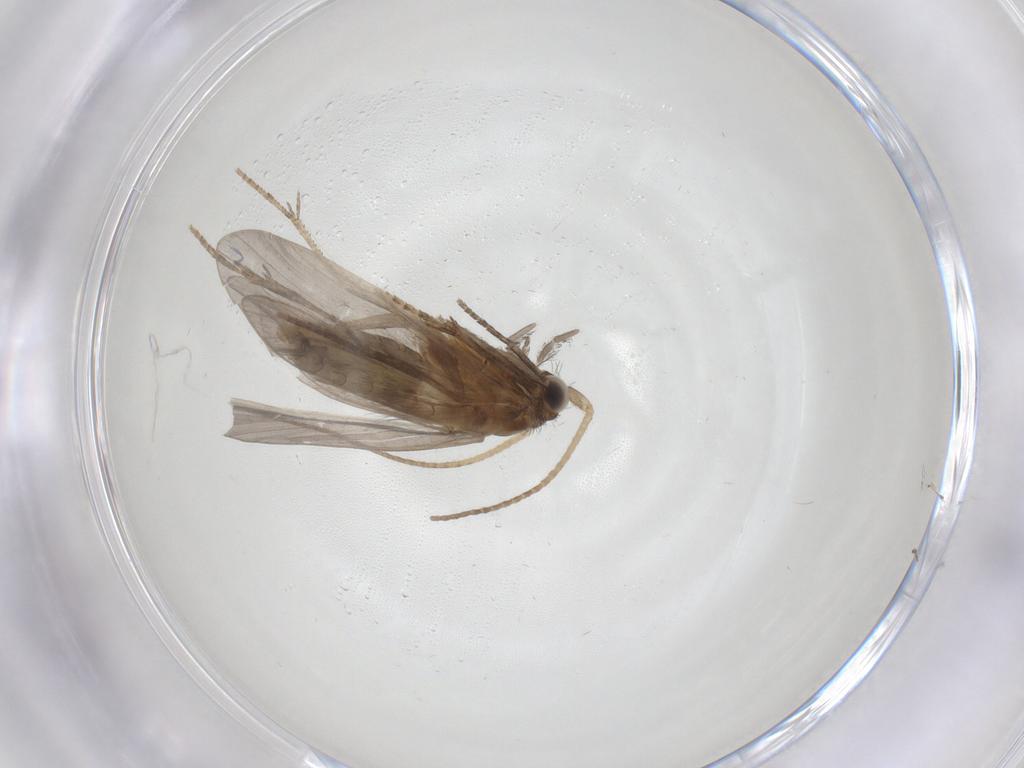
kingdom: Animalia
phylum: Arthropoda
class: Insecta
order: Trichoptera
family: Helicopsychidae
